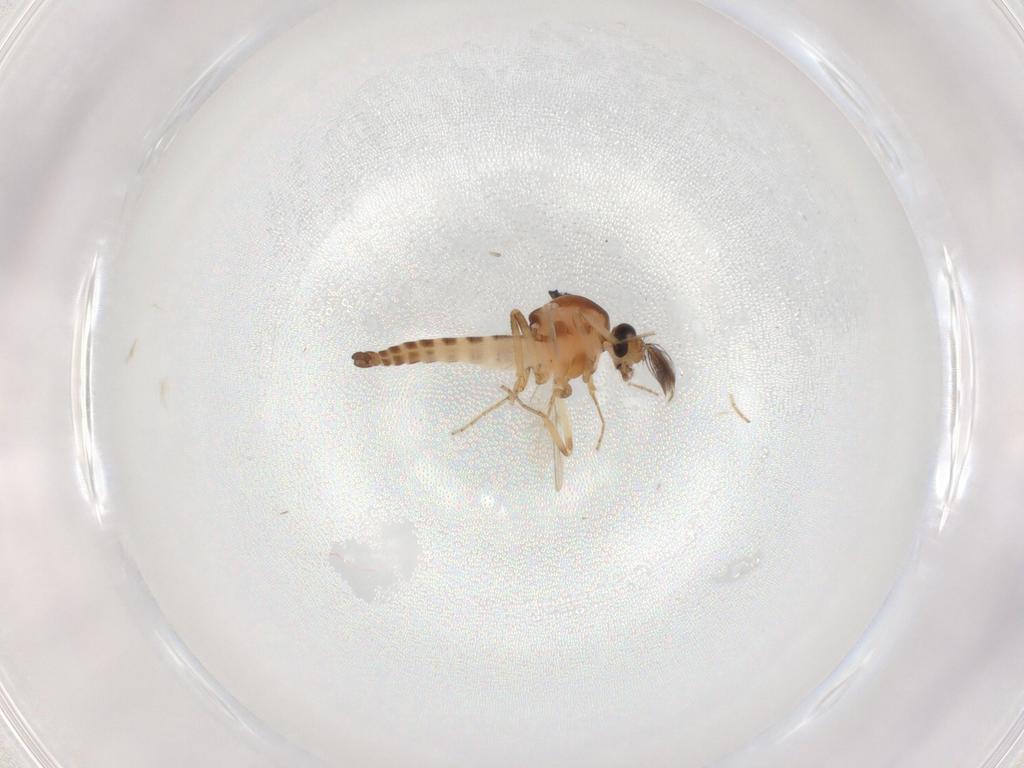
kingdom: Animalia
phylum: Arthropoda
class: Insecta
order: Diptera
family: Ceratopogonidae
